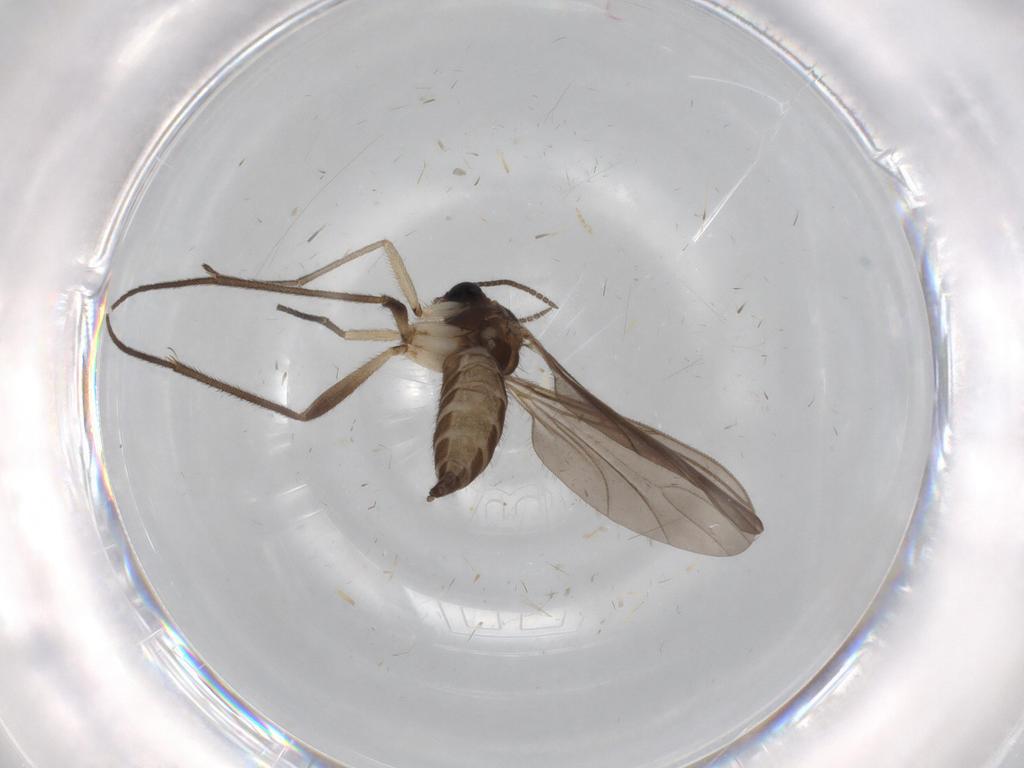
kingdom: Animalia
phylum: Arthropoda
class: Insecta
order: Diptera
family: Sciaridae
